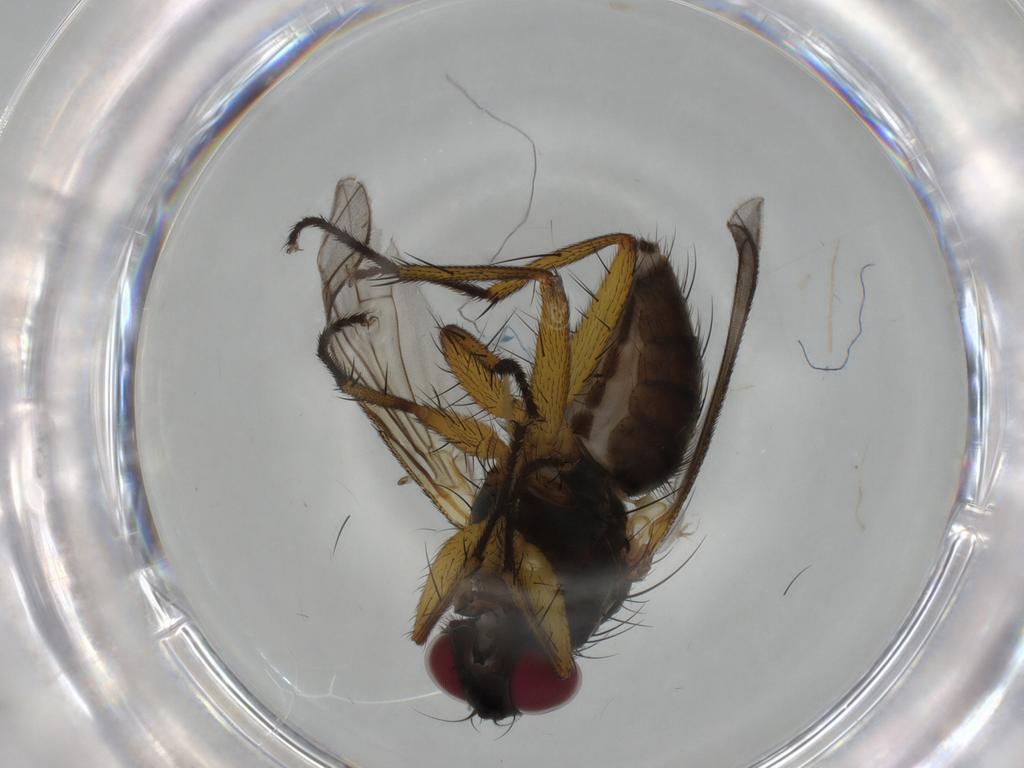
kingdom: Animalia
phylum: Arthropoda
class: Insecta
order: Diptera
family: Muscidae
